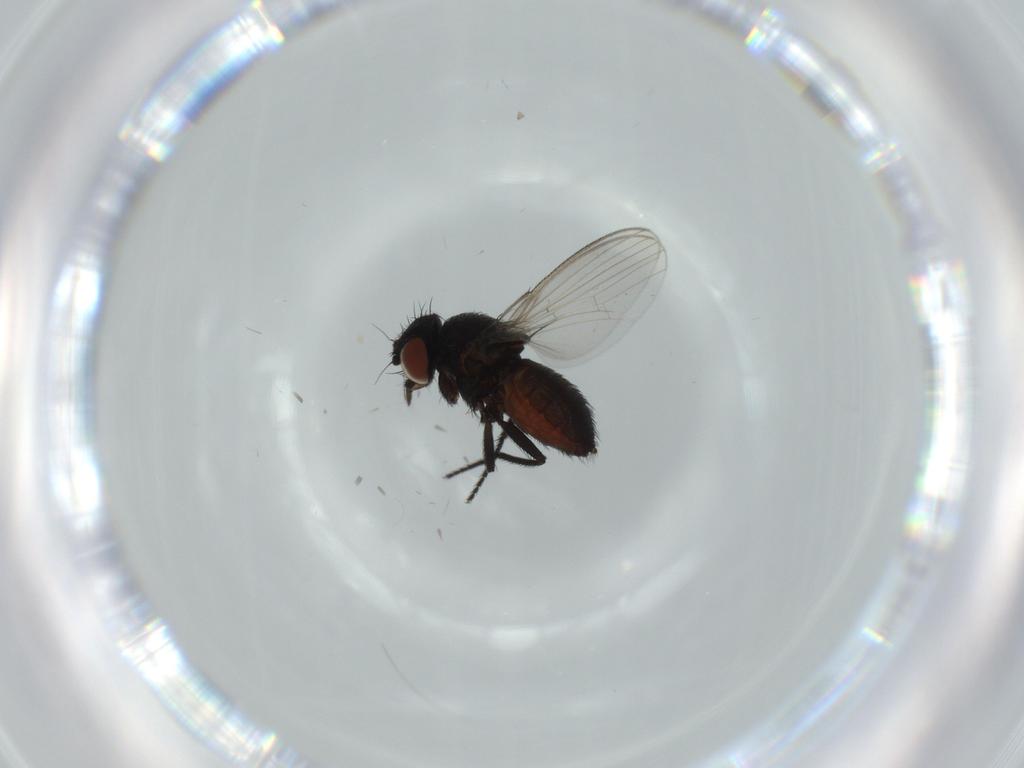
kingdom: Animalia
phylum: Arthropoda
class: Insecta
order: Diptera
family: Milichiidae
